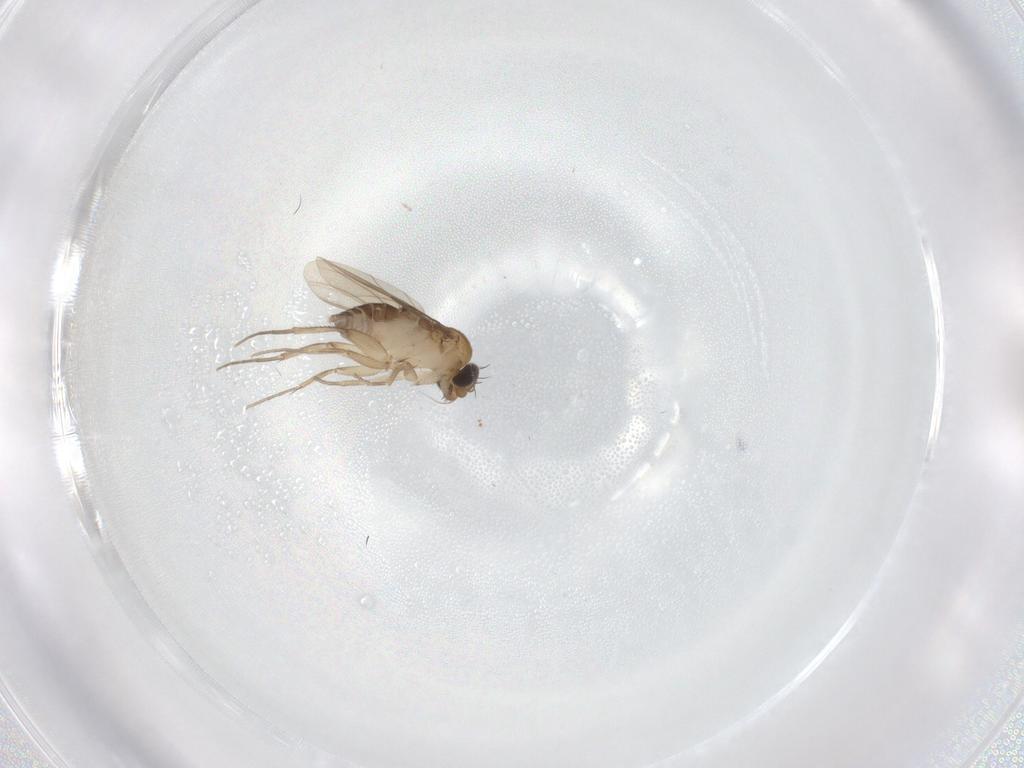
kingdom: Animalia
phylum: Arthropoda
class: Insecta
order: Diptera
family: Phoridae
